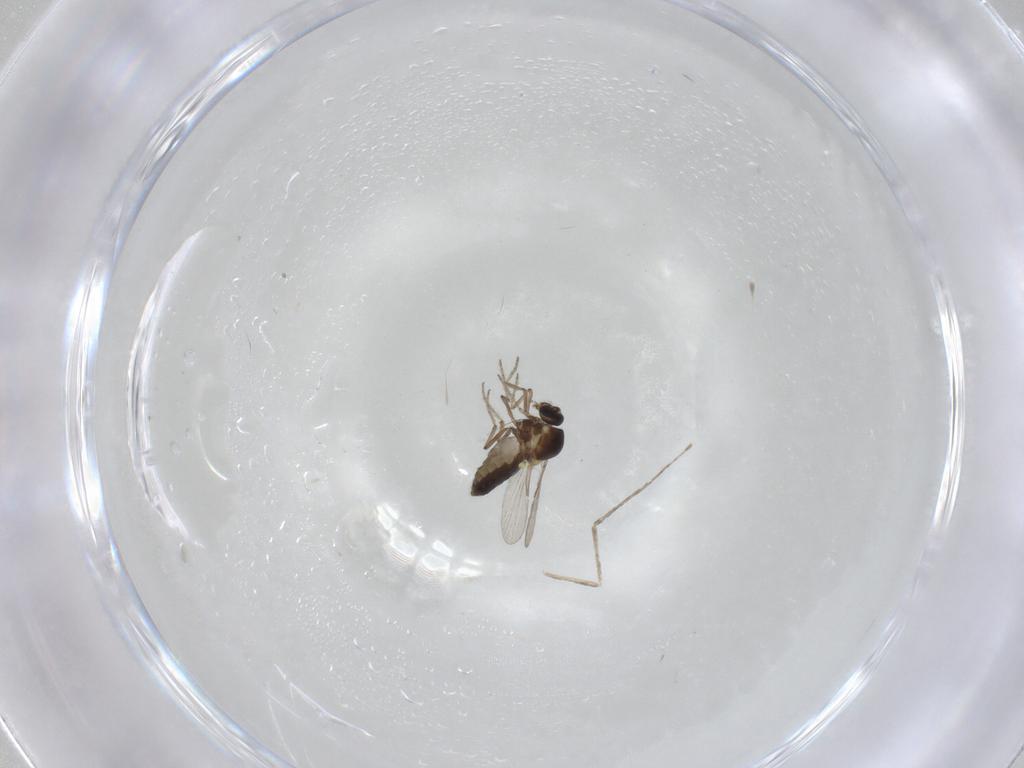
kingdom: Animalia
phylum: Arthropoda
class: Insecta
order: Diptera
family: Ceratopogonidae
